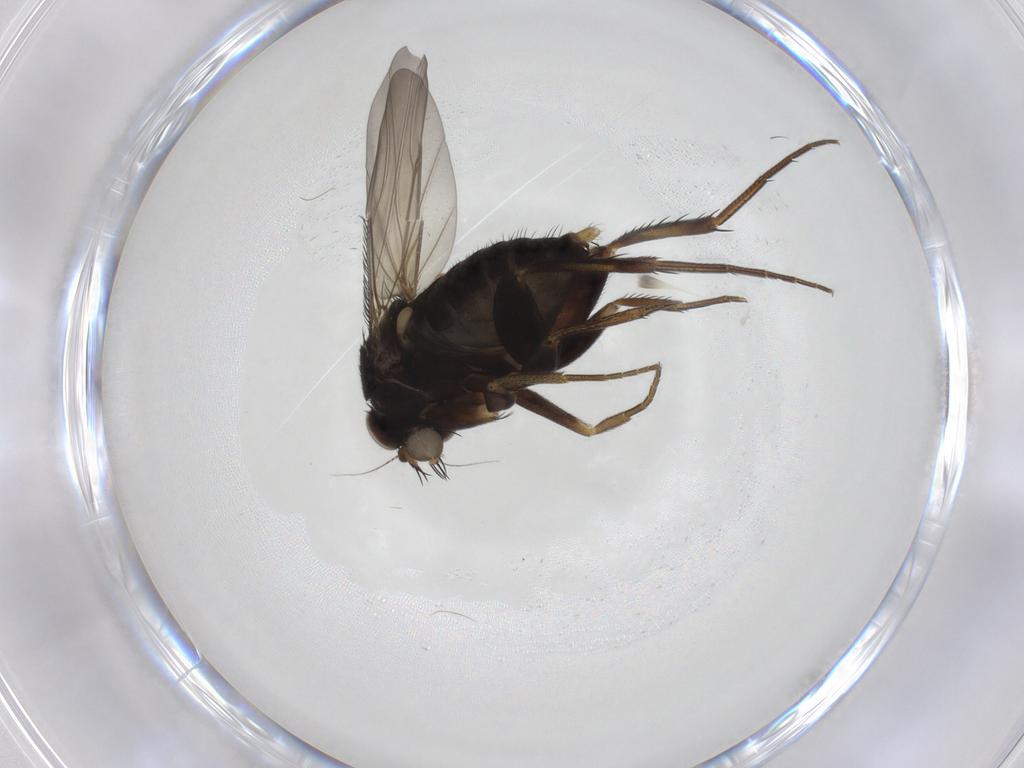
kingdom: Animalia
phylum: Arthropoda
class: Insecta
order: Diptera
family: Phoridae
